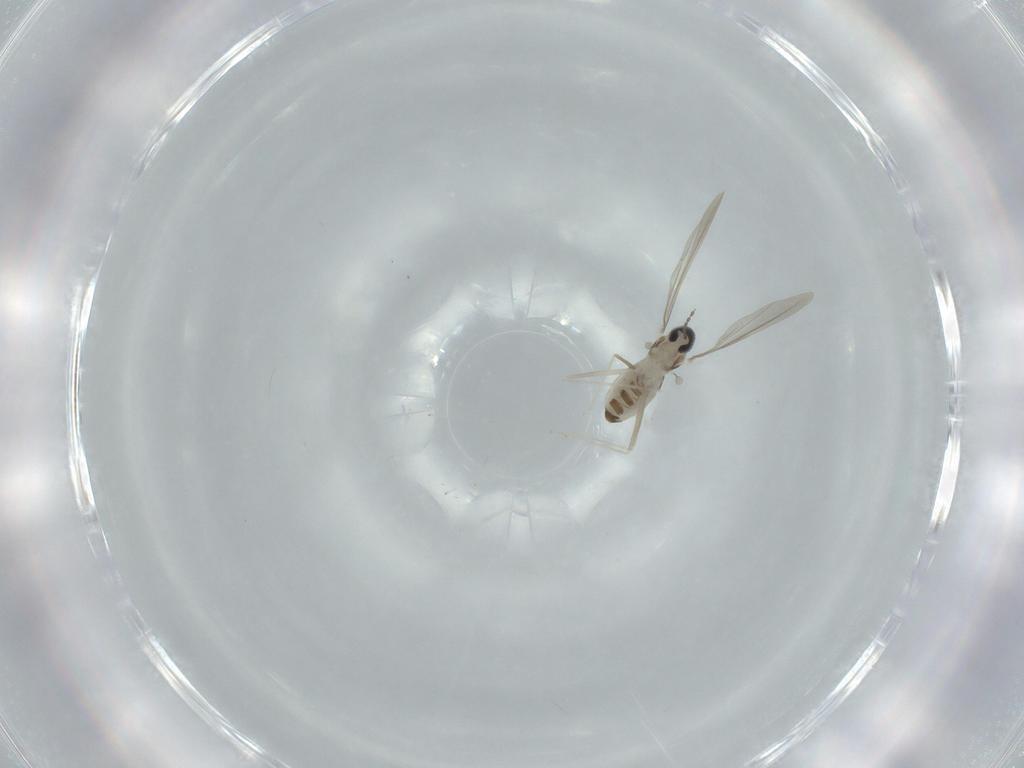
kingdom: Animalia
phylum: Arthropoda
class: Insecta
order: Diptera
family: Cecidomyiidae
